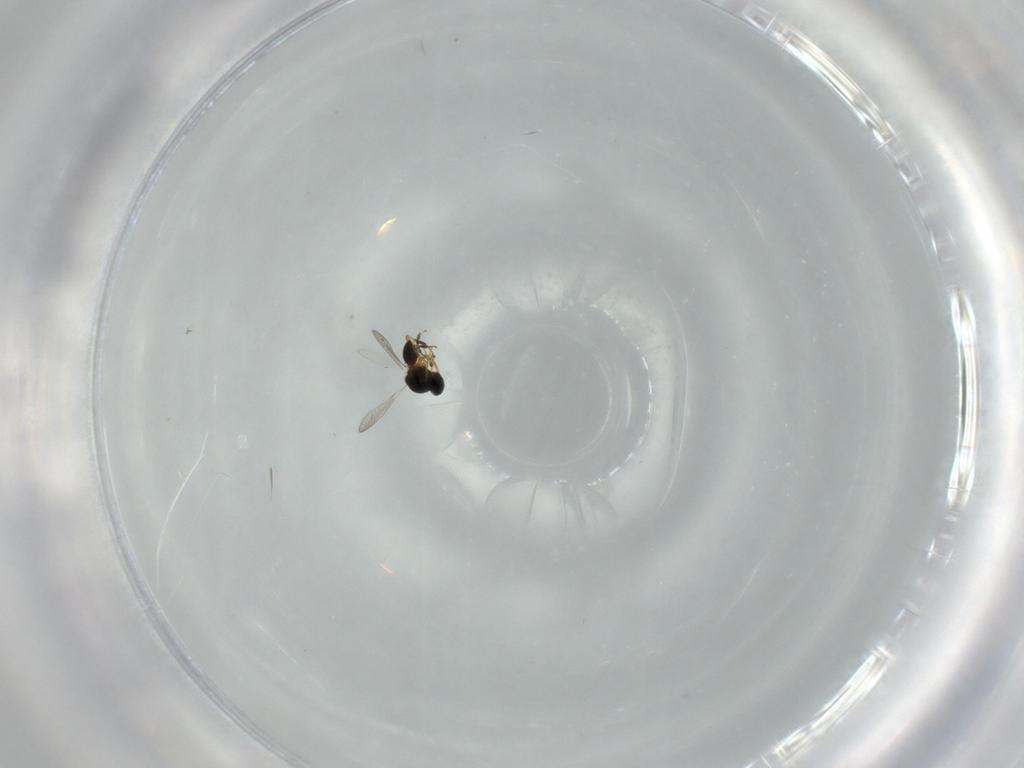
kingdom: Animalia
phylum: Arthropoda
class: Insecta
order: Hymenoptera
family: Platygastridae
